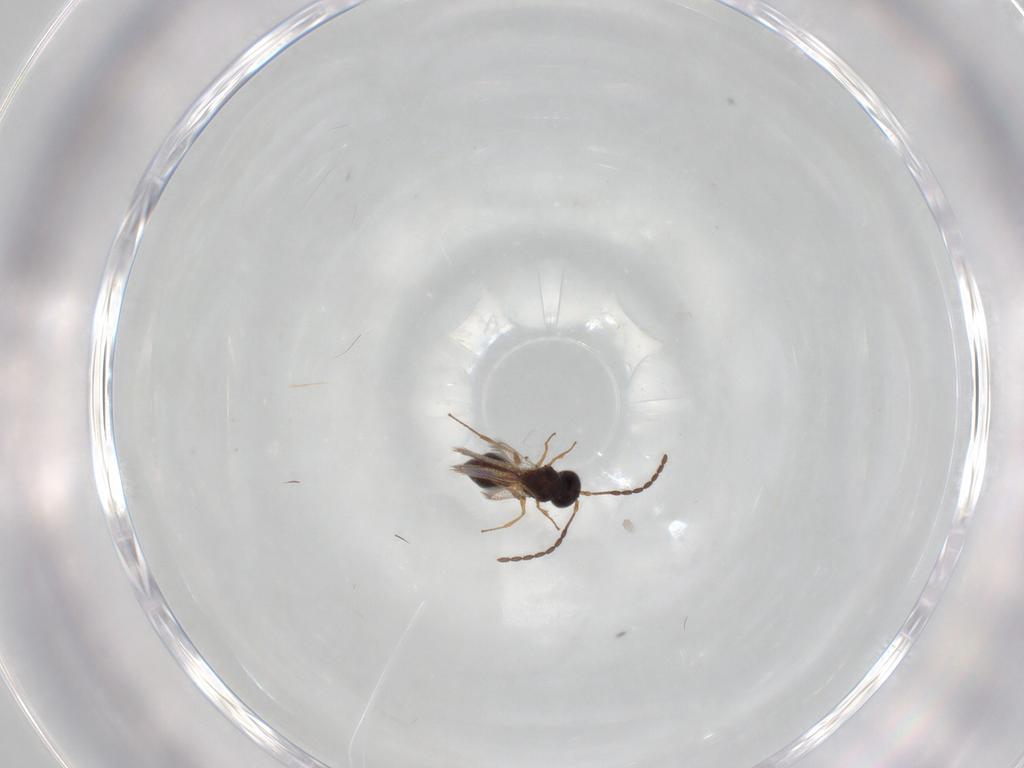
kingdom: Animalia
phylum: Arthropoda
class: Insecta
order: Hymenoptera
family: Figitidae
